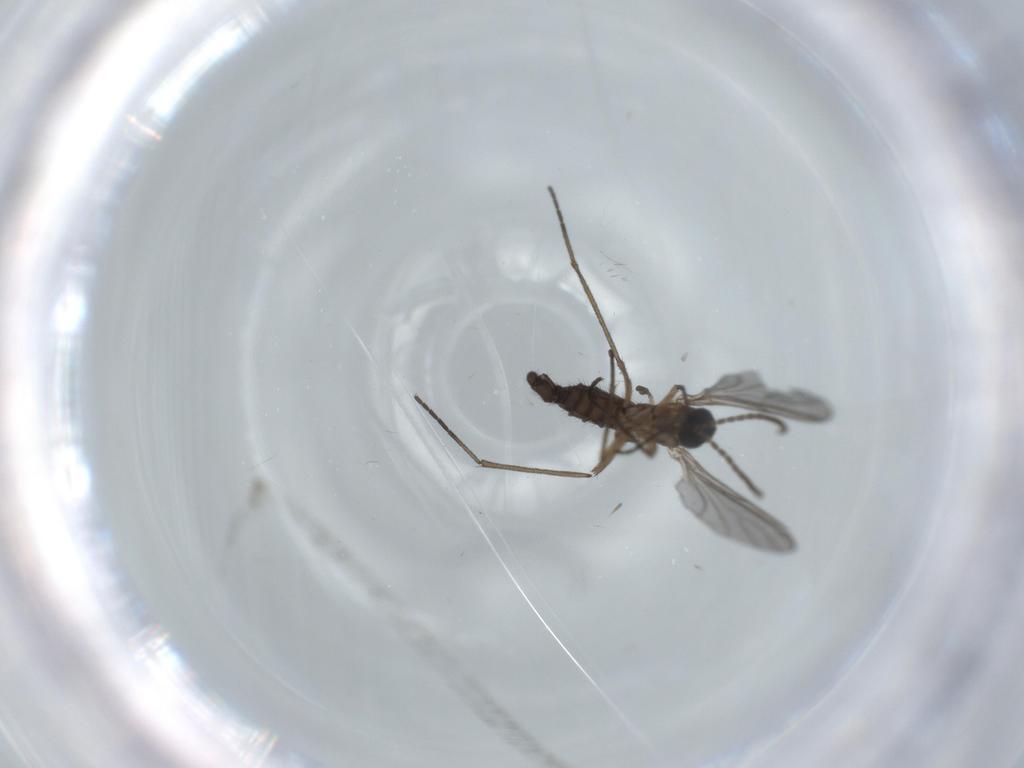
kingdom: Animalia
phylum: Arthropoda
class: Insecta
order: Diptera
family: Sciaridae
